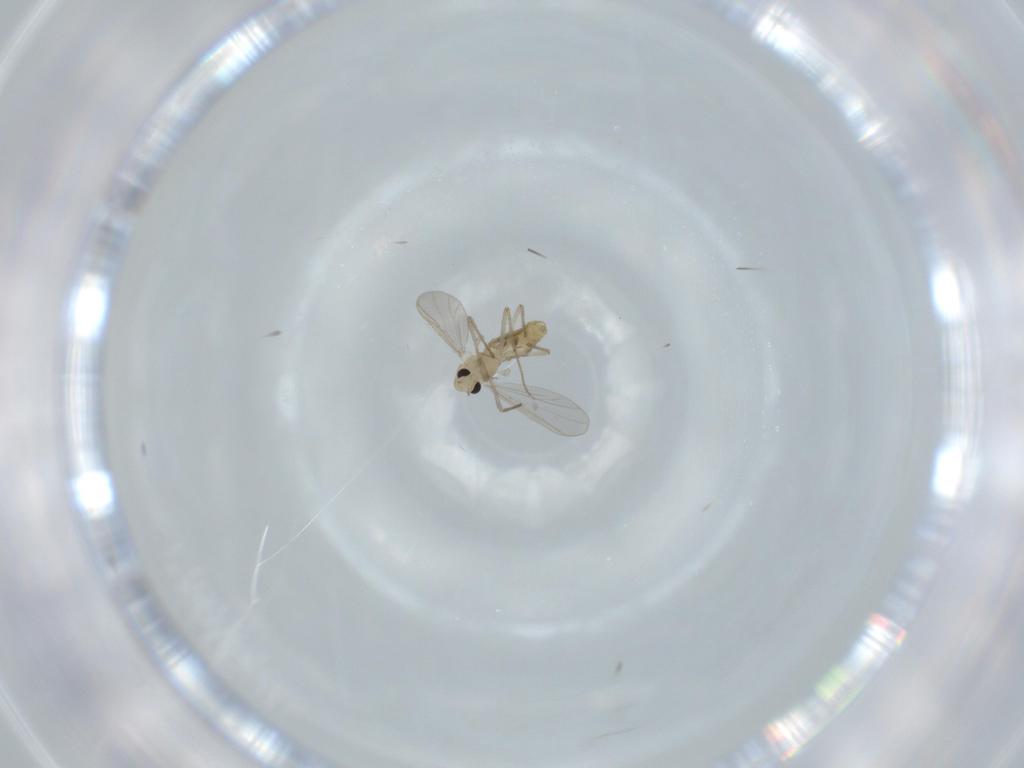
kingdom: Animalia
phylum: Arthropoda
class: Insecta
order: Diptera
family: Chironomidae
